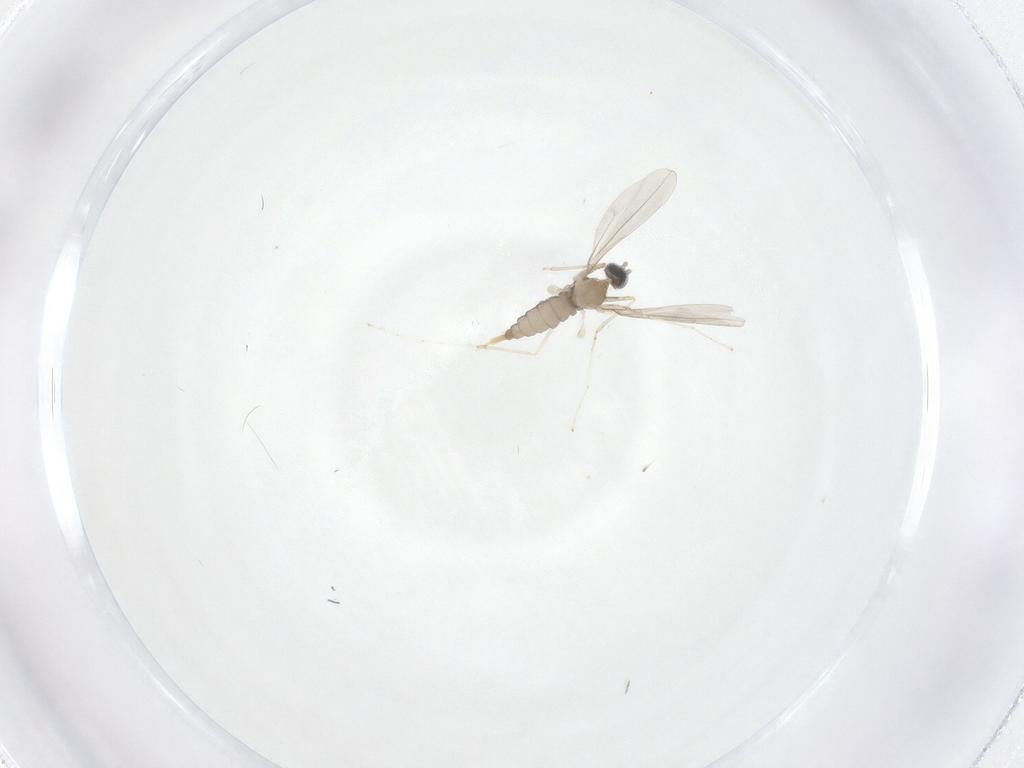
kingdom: Animalia
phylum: Arthropoda
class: Insecta
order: Diptera
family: Cecidomyiidae
